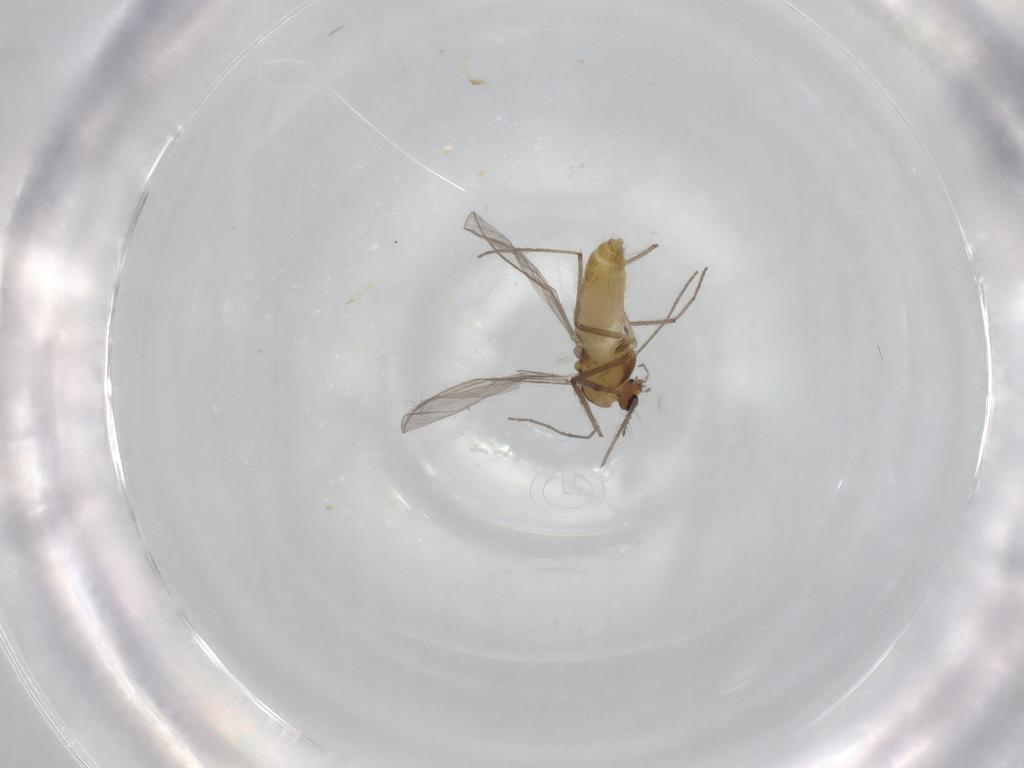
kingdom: Animalia
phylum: Arthropoda
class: Insecta
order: Diptera
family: Chironomidae
